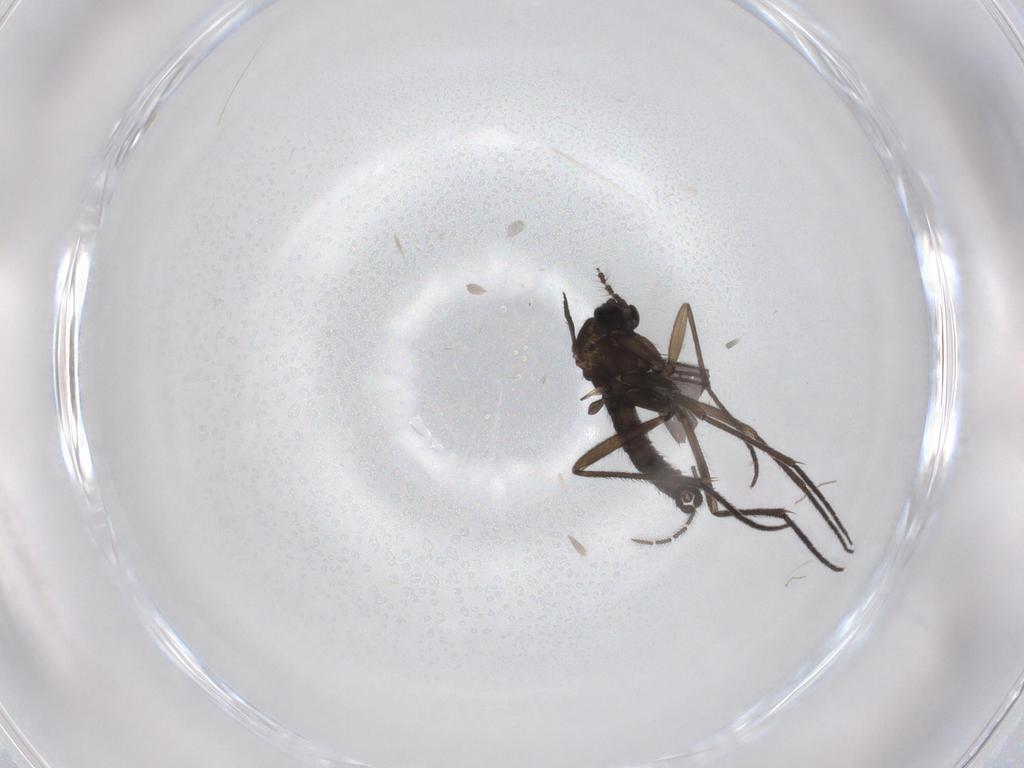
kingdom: Animalia
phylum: Arthropoda
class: Insecta
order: Diptera
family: Sciaridae
